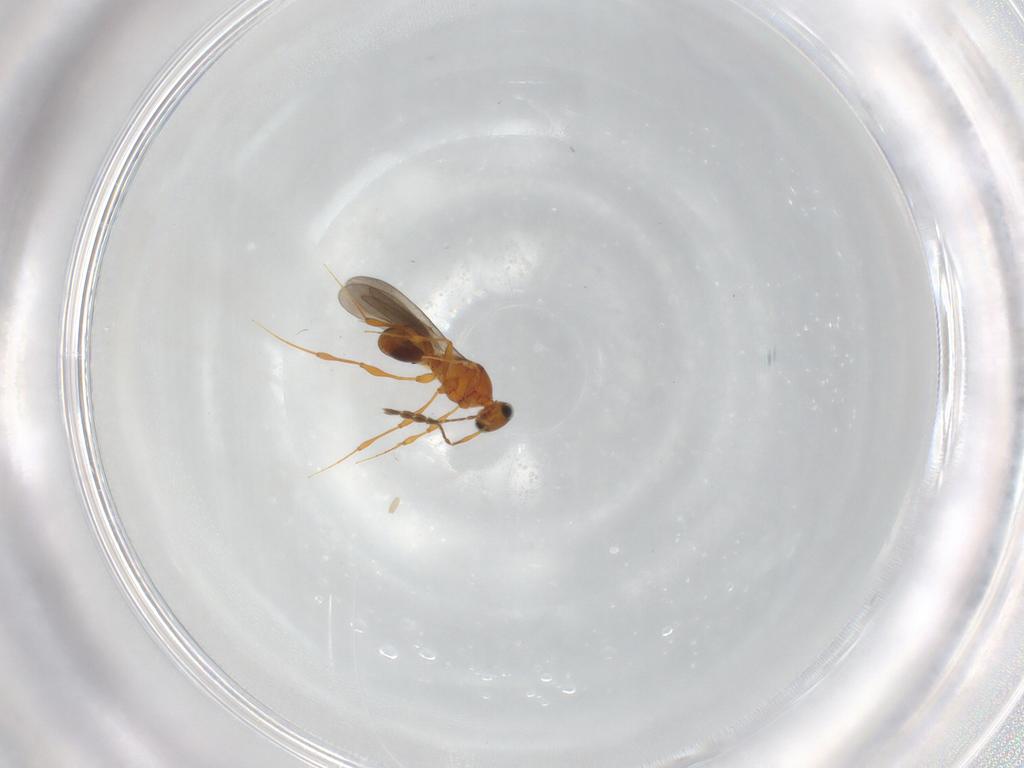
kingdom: Animalia
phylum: Arthropoda
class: Insecta
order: Hymenoptera
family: Platygastridae
